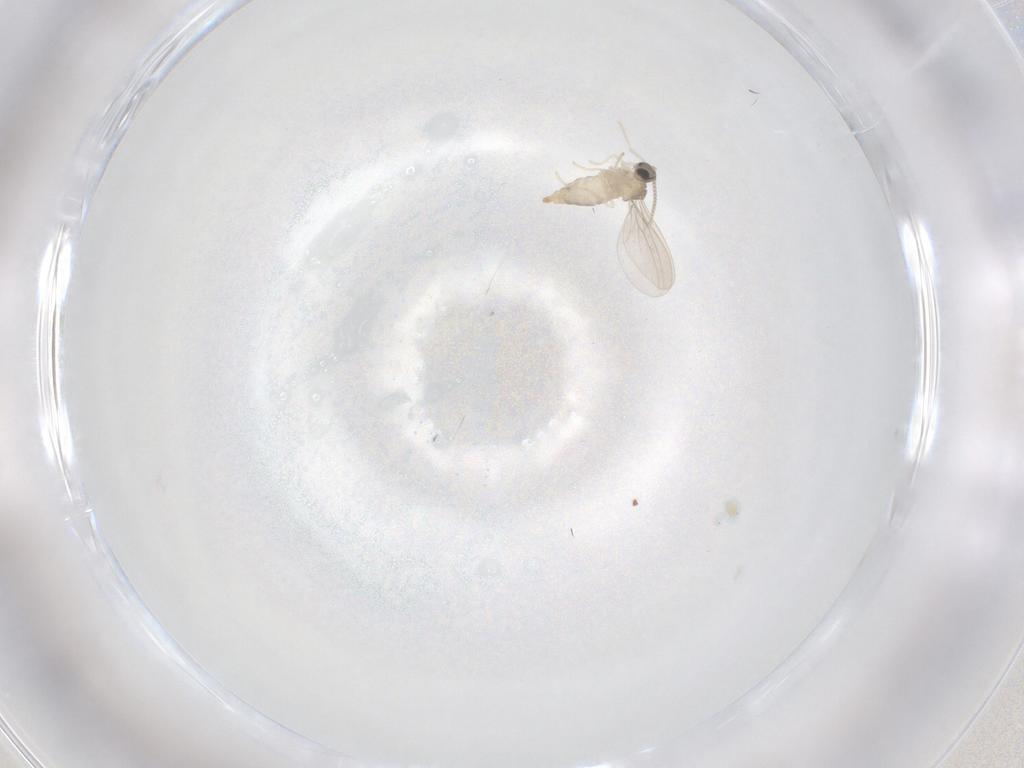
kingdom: Animalia
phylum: Arthropoda
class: Insecta
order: Diptera
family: Cecidomyiidae
